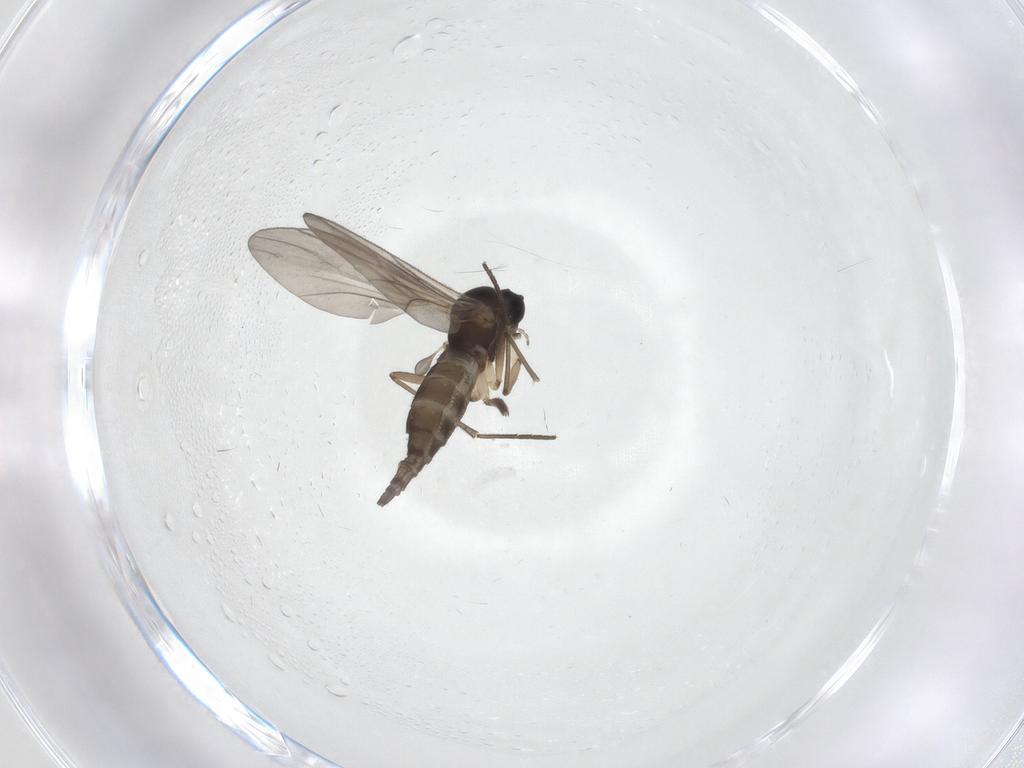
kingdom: Animalia
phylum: Arthropoda
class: Insecta
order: Diptera
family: Sciaridae
